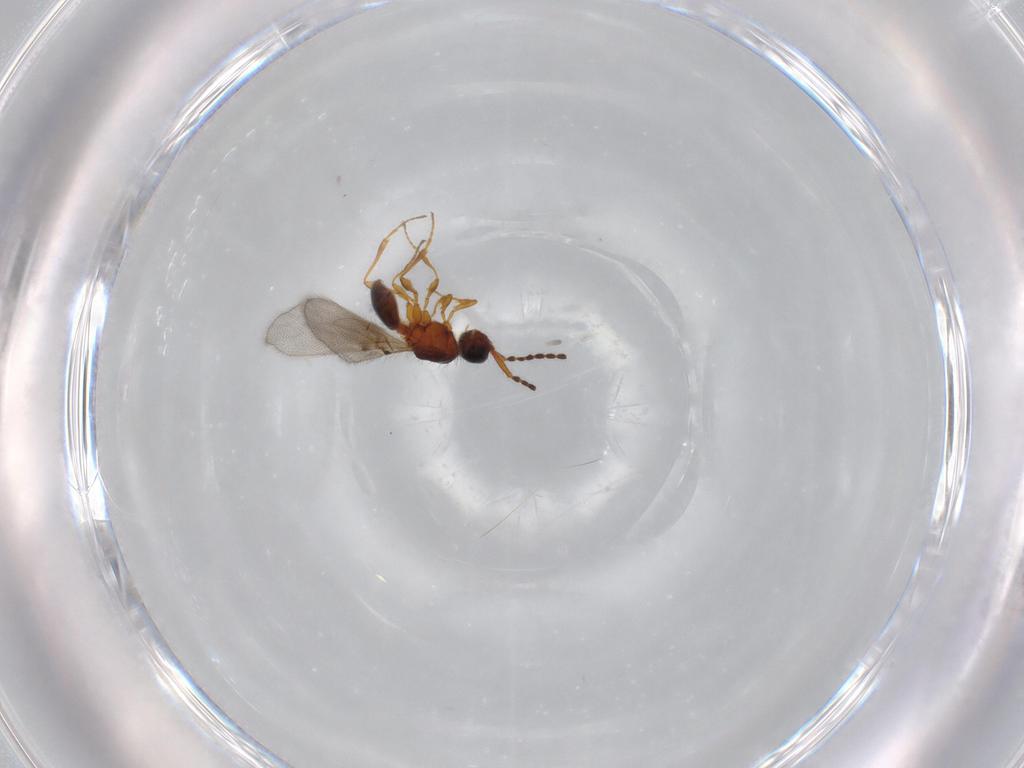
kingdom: Animalia
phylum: Arthropoda
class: Insecta
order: Hymenoptera
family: Diapriidae
